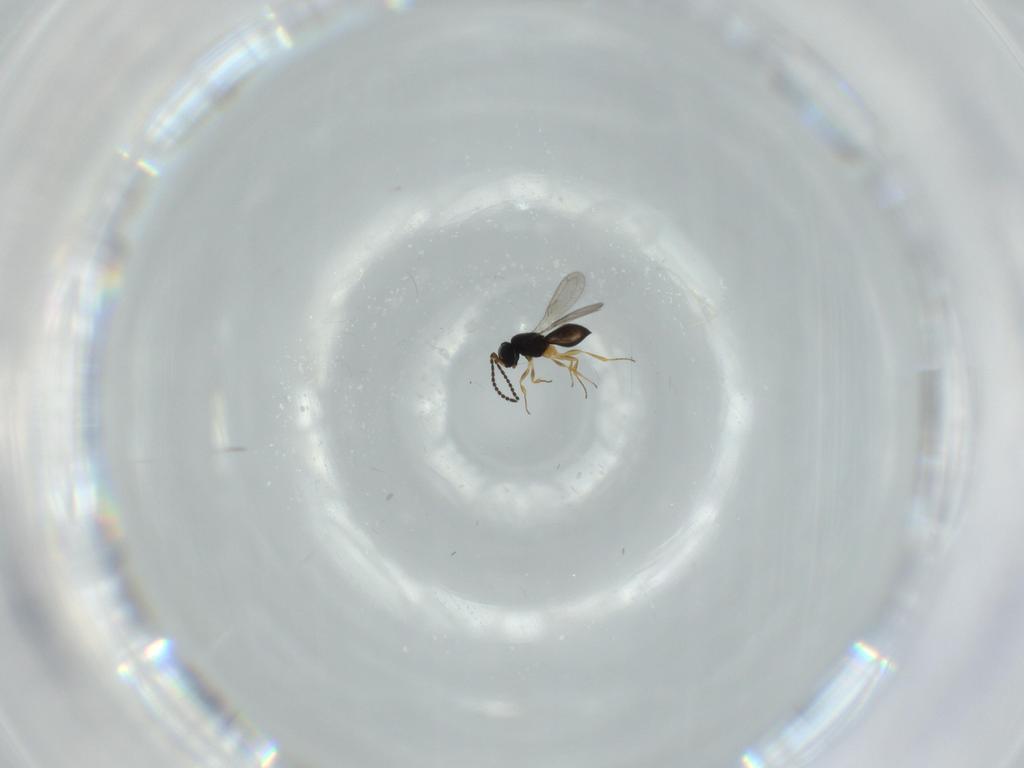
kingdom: Animalia
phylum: Arthropoda
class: Insecta
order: Hymenoptera
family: Scelionidae
